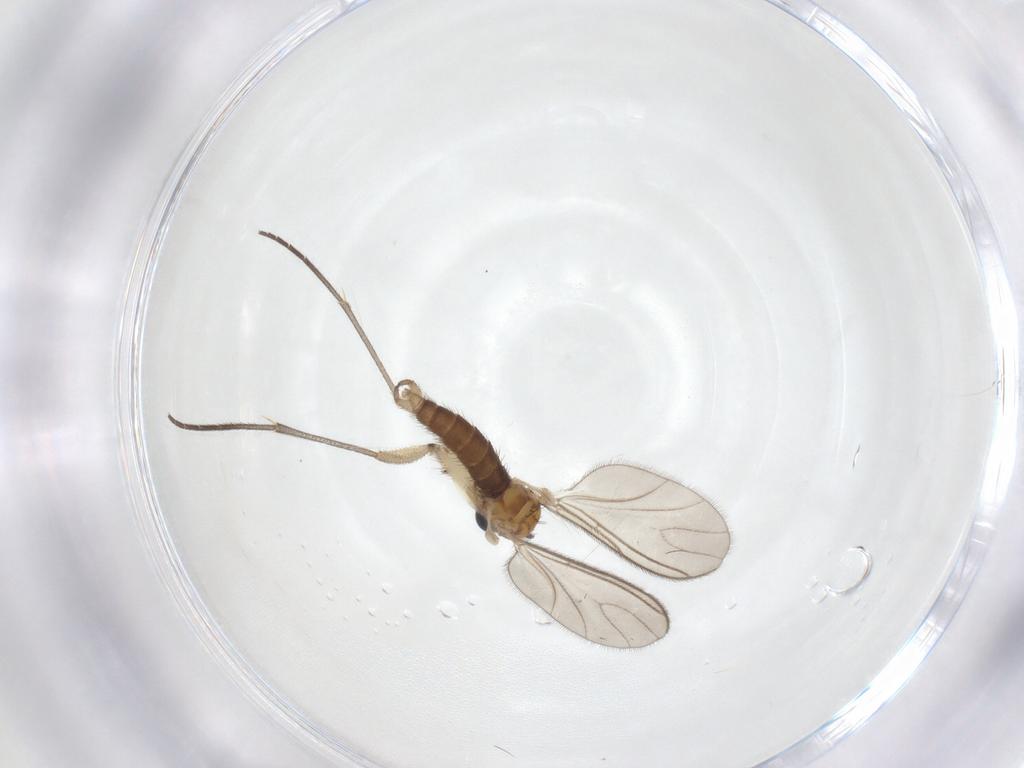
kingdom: Animalia
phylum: Arthropoda
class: Insecta
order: Diptera
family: Sciaridae
